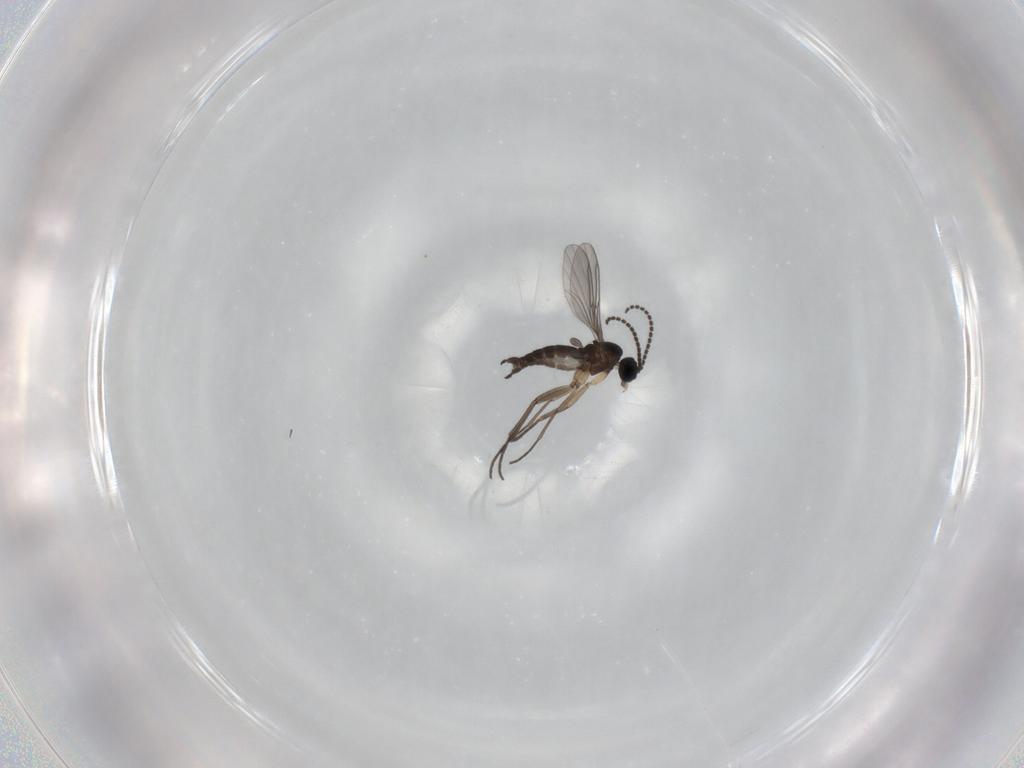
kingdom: Animalia
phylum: Arthropoda
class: Insecta
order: Diptera
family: Sciaridae
